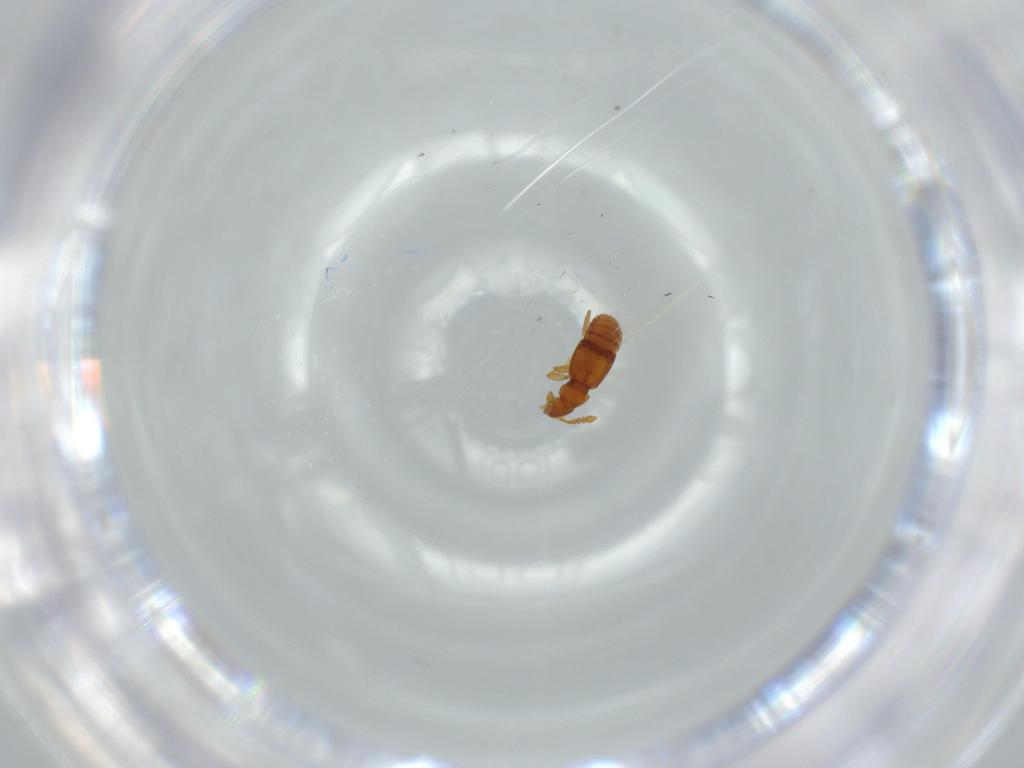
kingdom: Animalia
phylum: Arthropoda
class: Insecta
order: Coleoptera
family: Staphylinidae
